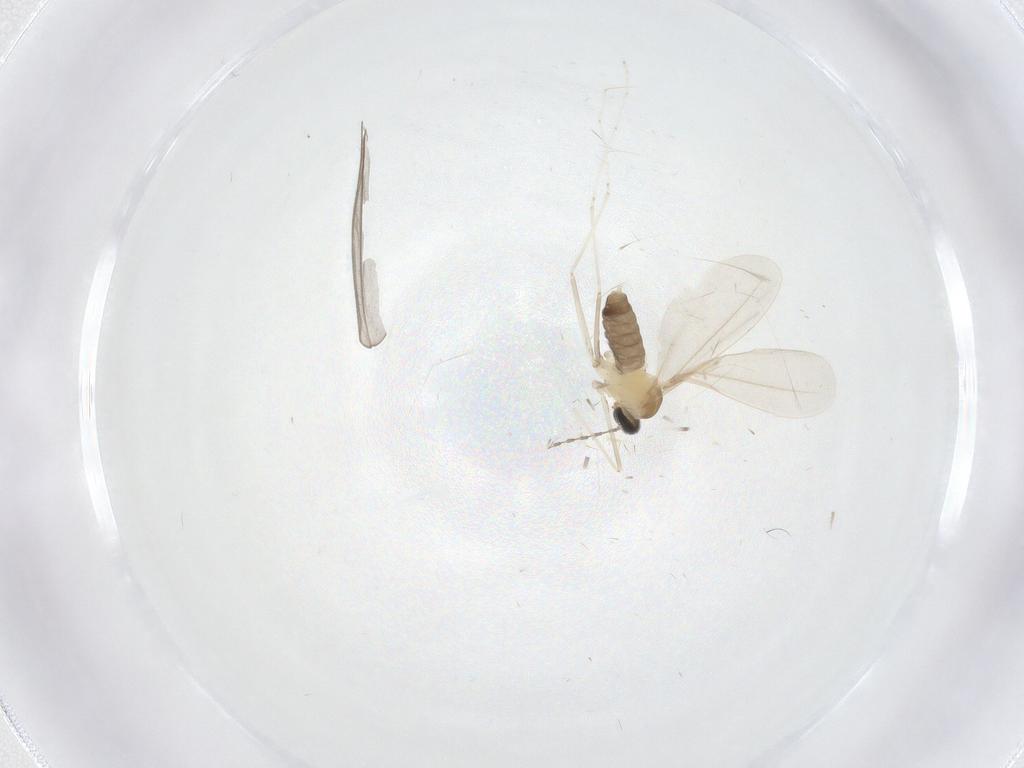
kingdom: Animalia
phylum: Arthropoda
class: Insecta
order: Diptera
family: Cecidomyiidae
